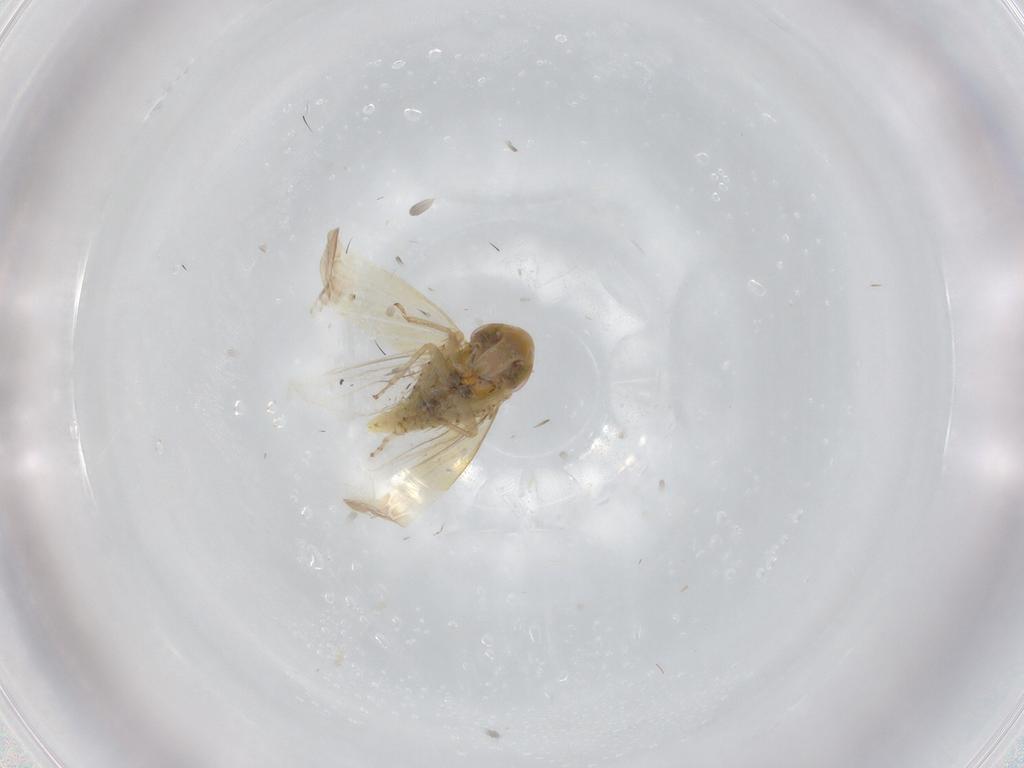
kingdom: Animalia
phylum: Arthropoda
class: Insecta
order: Hemiptera
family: Cicadellidae
